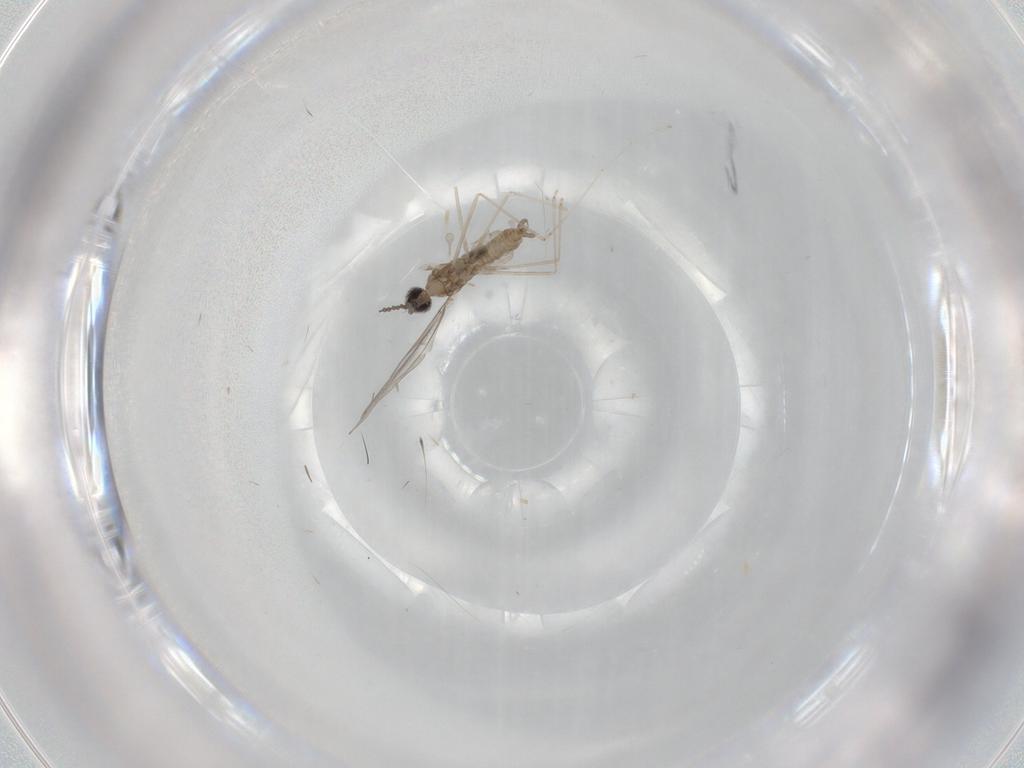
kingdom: Animalia
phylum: Arthropoda
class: Insecta
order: Diptera
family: Cecidomyiidae
